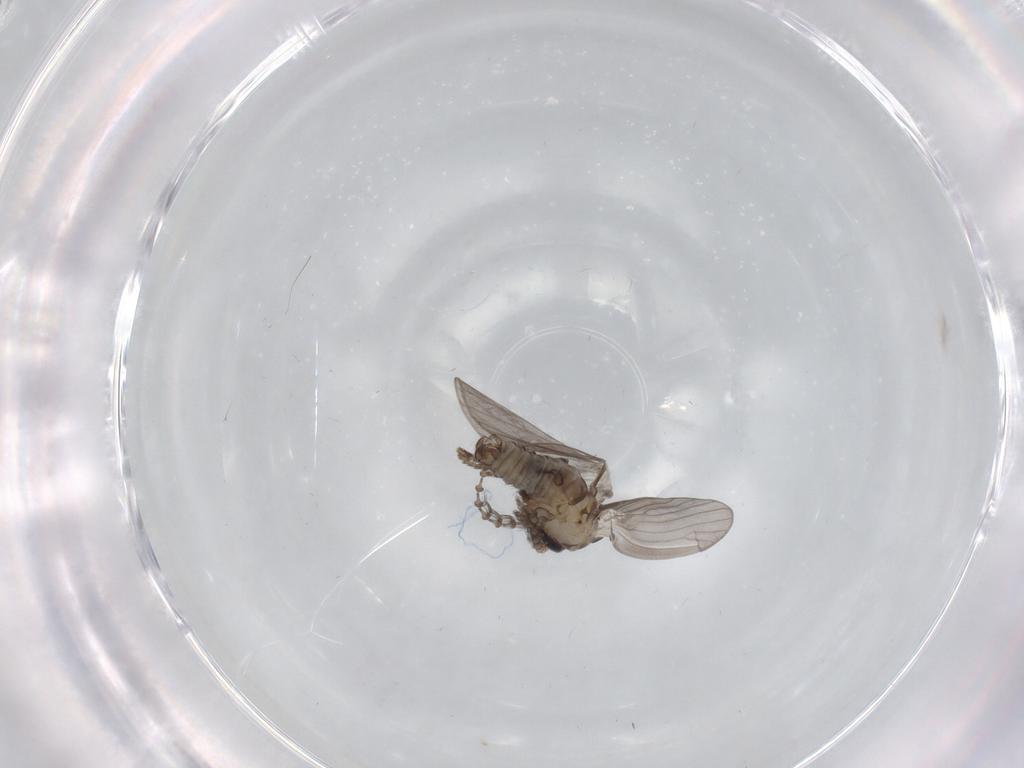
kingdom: Animalia
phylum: Arthropoda
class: Insecta
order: Diptera
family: Psychodidae
